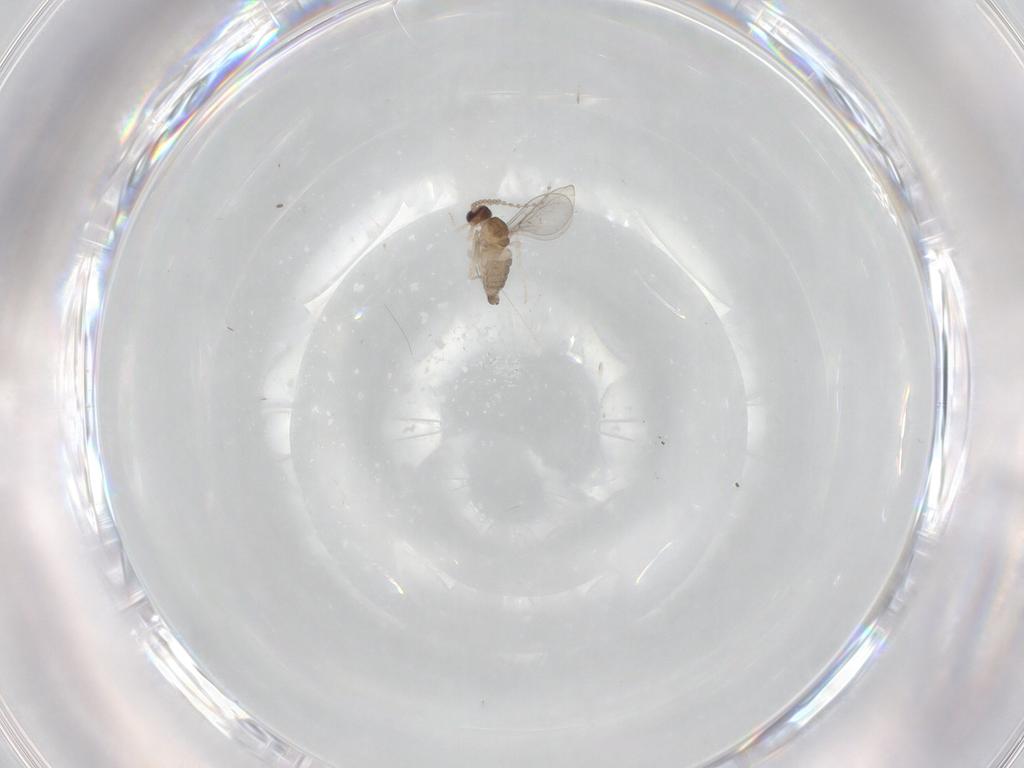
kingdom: Animalia
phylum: Arthropoda
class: Insecta
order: Diptera
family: Cecidomyiidae
